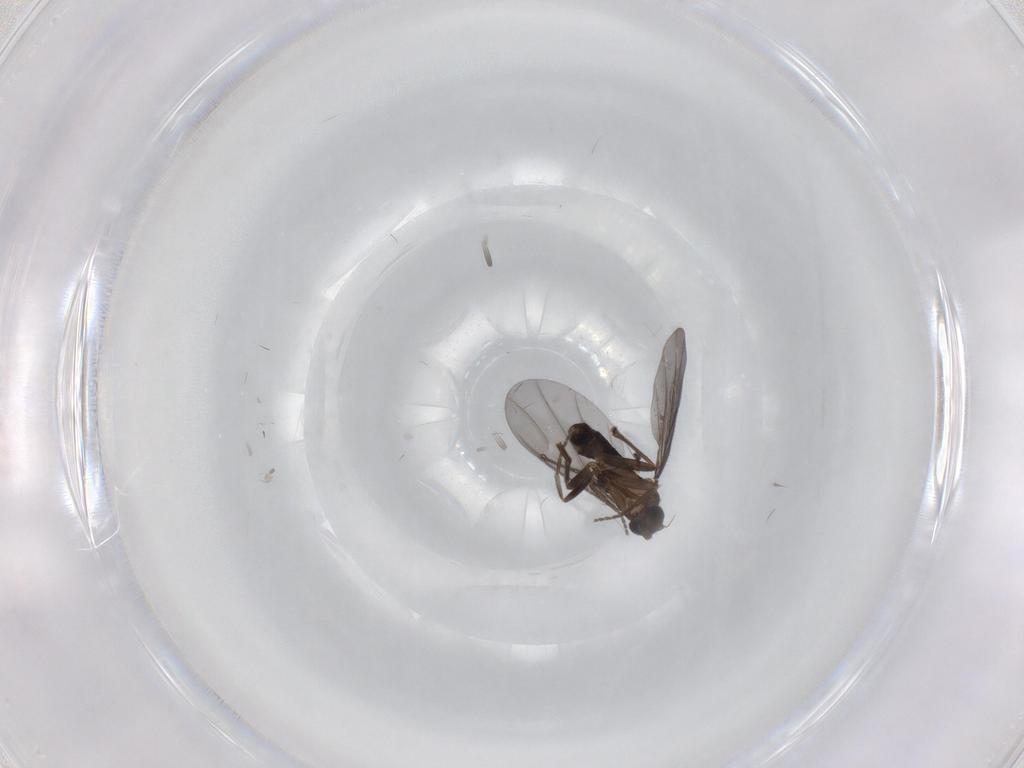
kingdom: Animalia
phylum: Arthropoda
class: Insecta
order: Diptera
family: Phoridae
